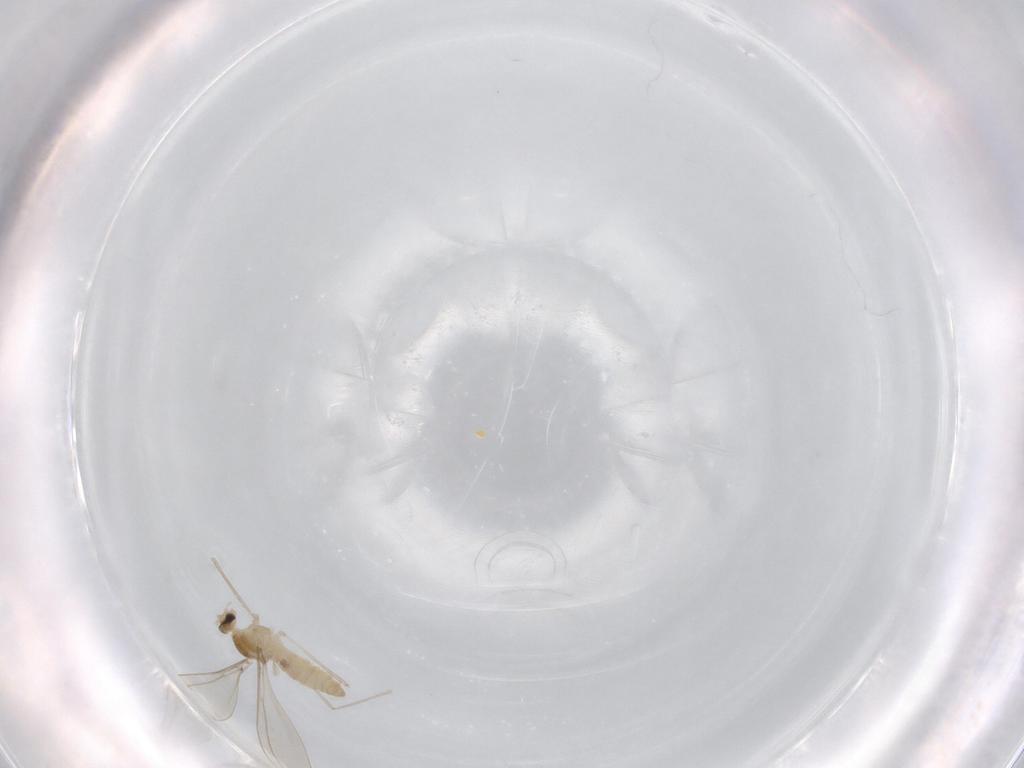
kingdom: Animalia
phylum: Arthropoda
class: Insecta
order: Diptera
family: Cecidomyiidae
